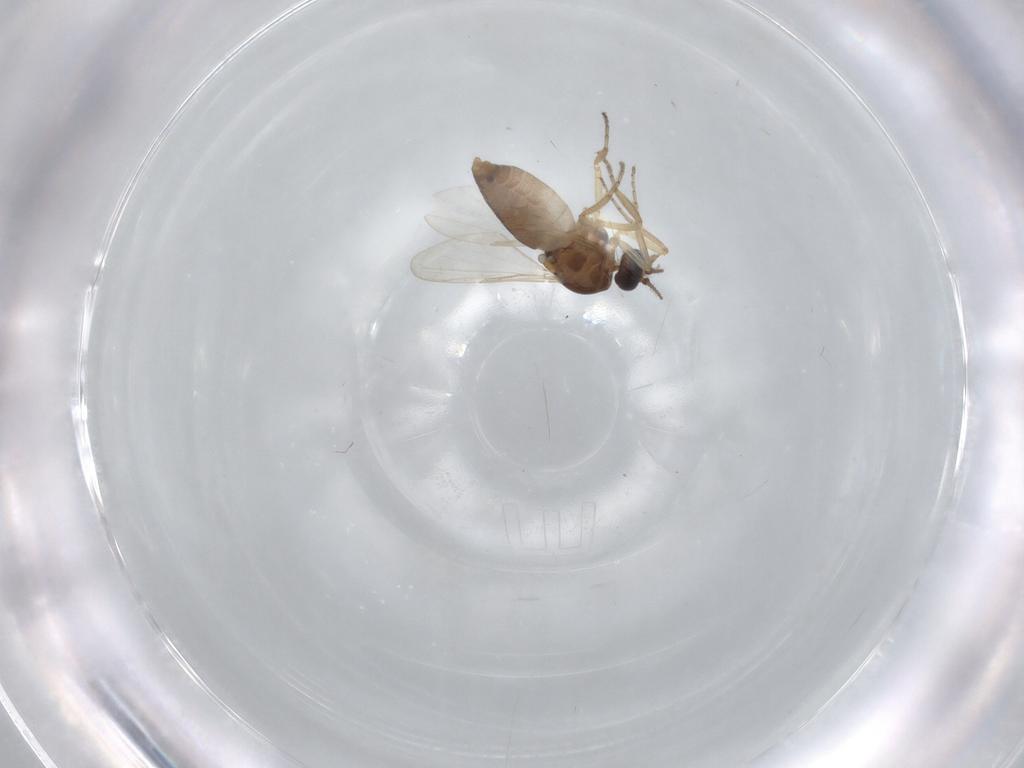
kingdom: Animalia
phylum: Arthropoda
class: Insecta
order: Diptera
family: Ceratopogonidae
